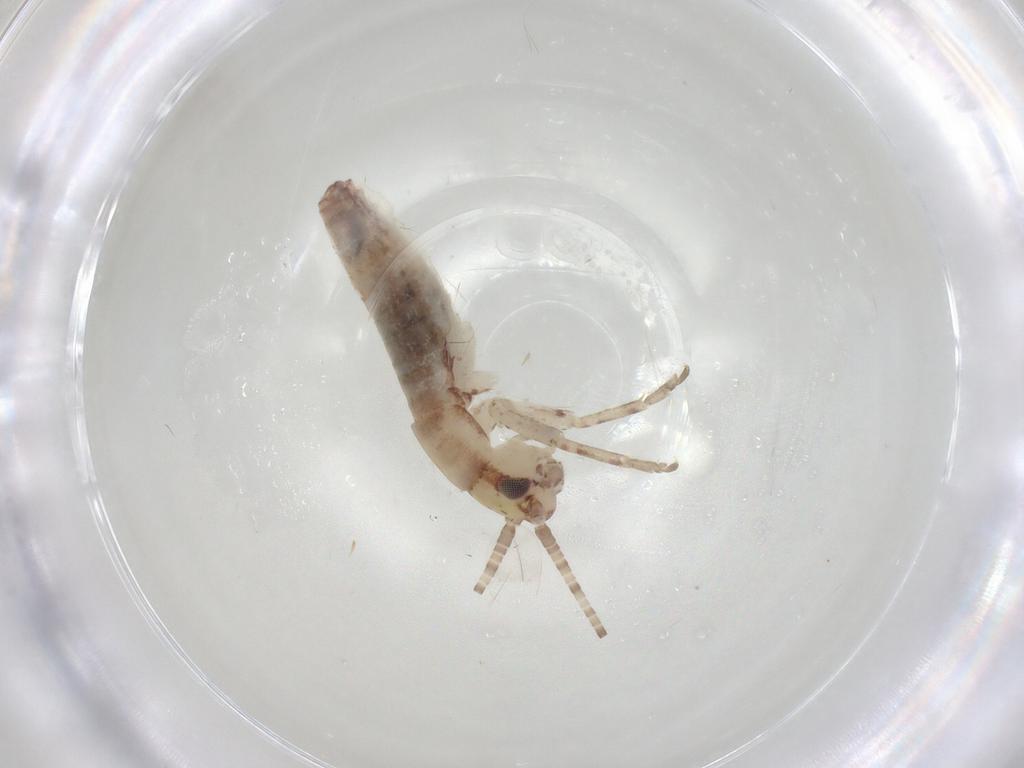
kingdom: Animalia
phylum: Arthropoda
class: Insecta
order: Orthoptera
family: Mogoplistidae
